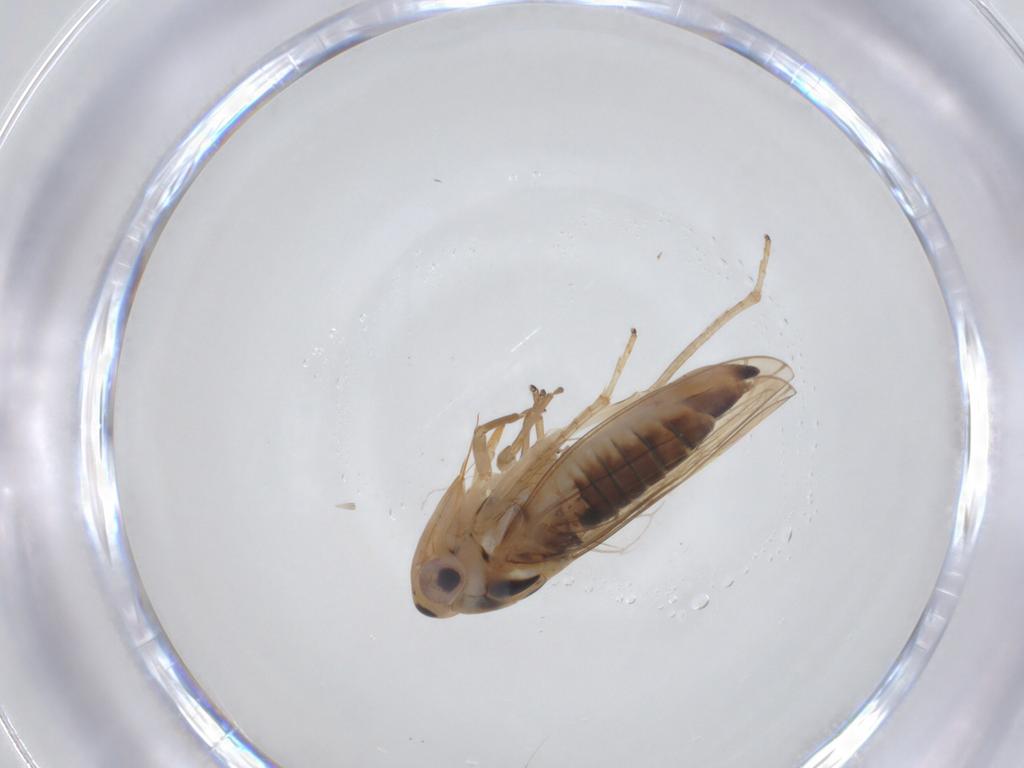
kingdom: Animalia
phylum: Arthropoda
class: Insecta
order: Hemiptera
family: Cicadellidae
